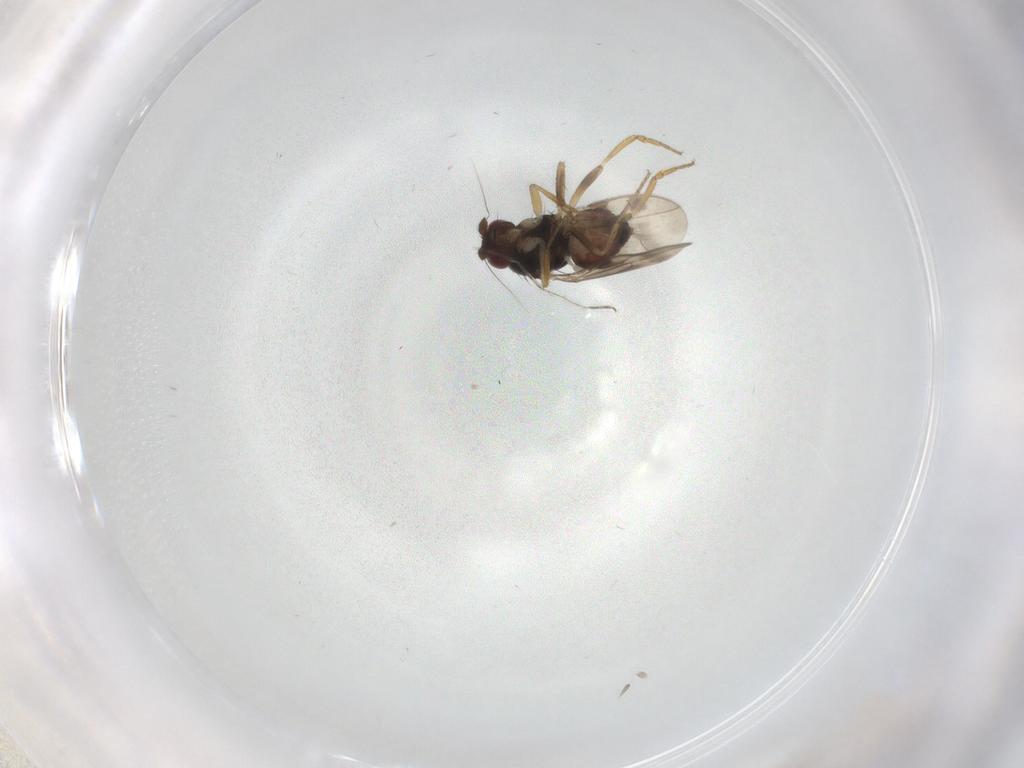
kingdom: Animalia
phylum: Arthropoda
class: Insecta
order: Diptera
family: Sphaeroceridae
